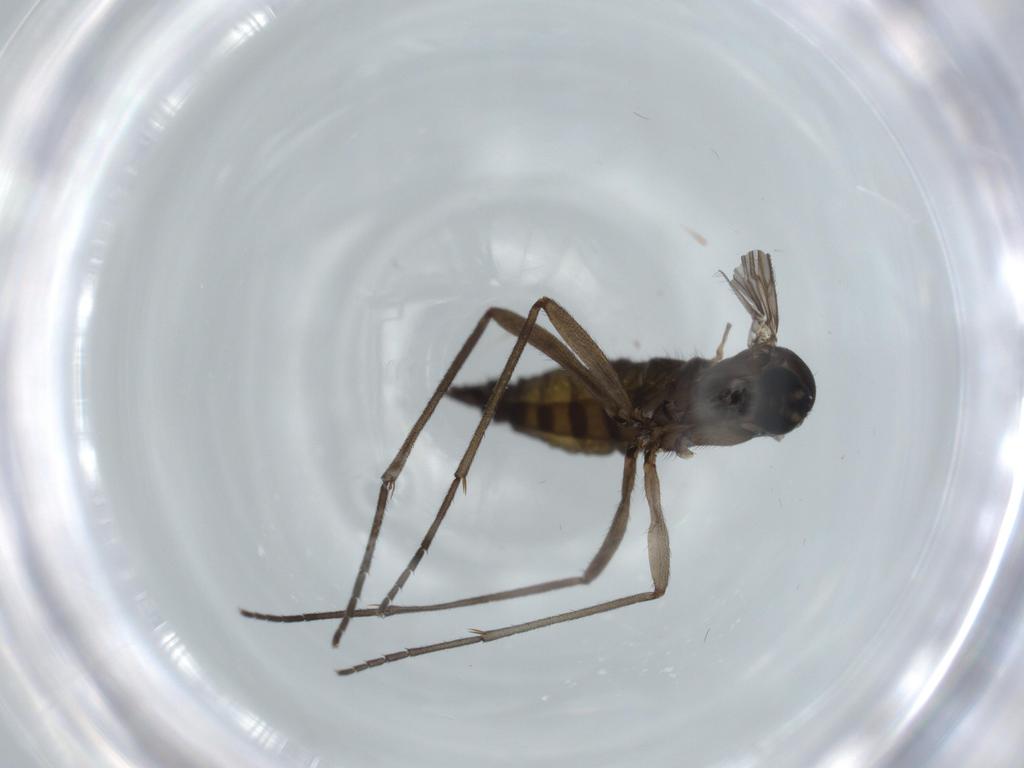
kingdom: Animalia
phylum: Arthropoda
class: Insecta
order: Diptera
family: Sciaridae
